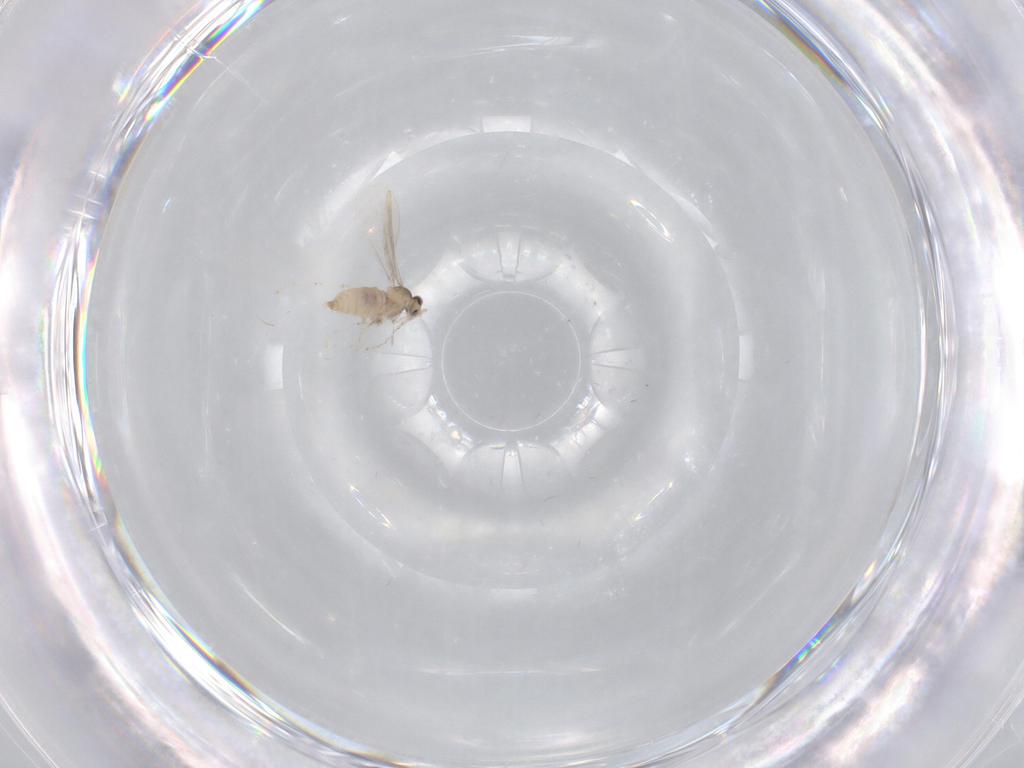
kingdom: Animalia
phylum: Arthropoda
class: Insecta
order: Diptera
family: Cecidomyiidae
